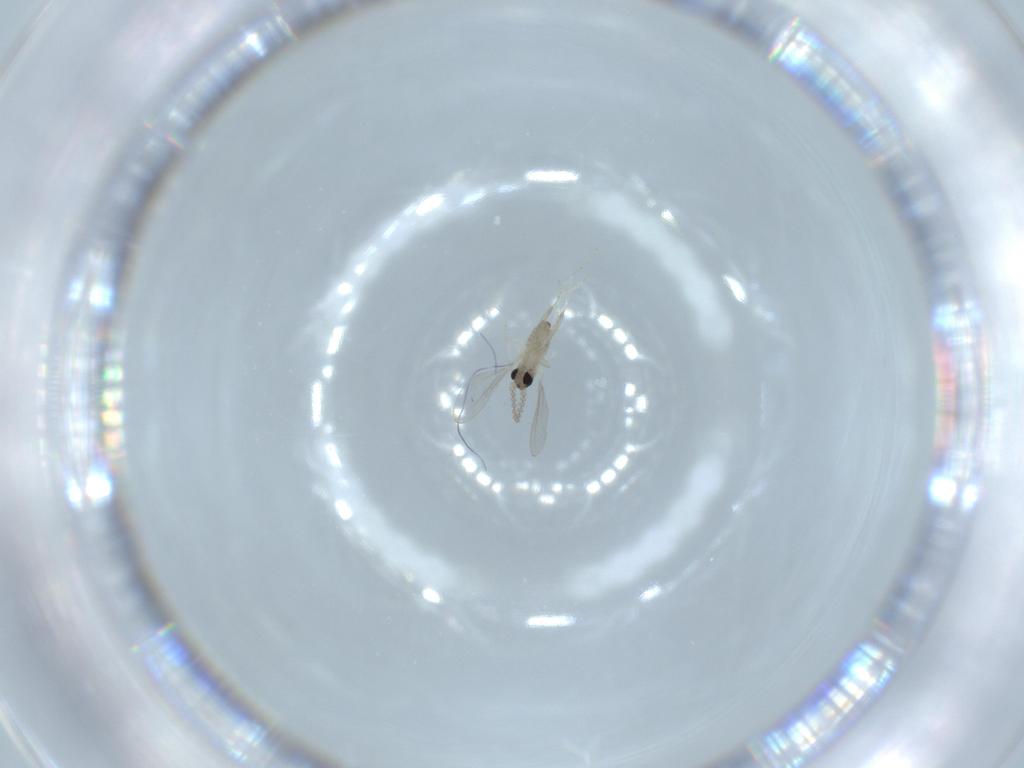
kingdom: Animalia
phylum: Arthropoda
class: Insecta
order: Diptera
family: Cecidomyiidae
